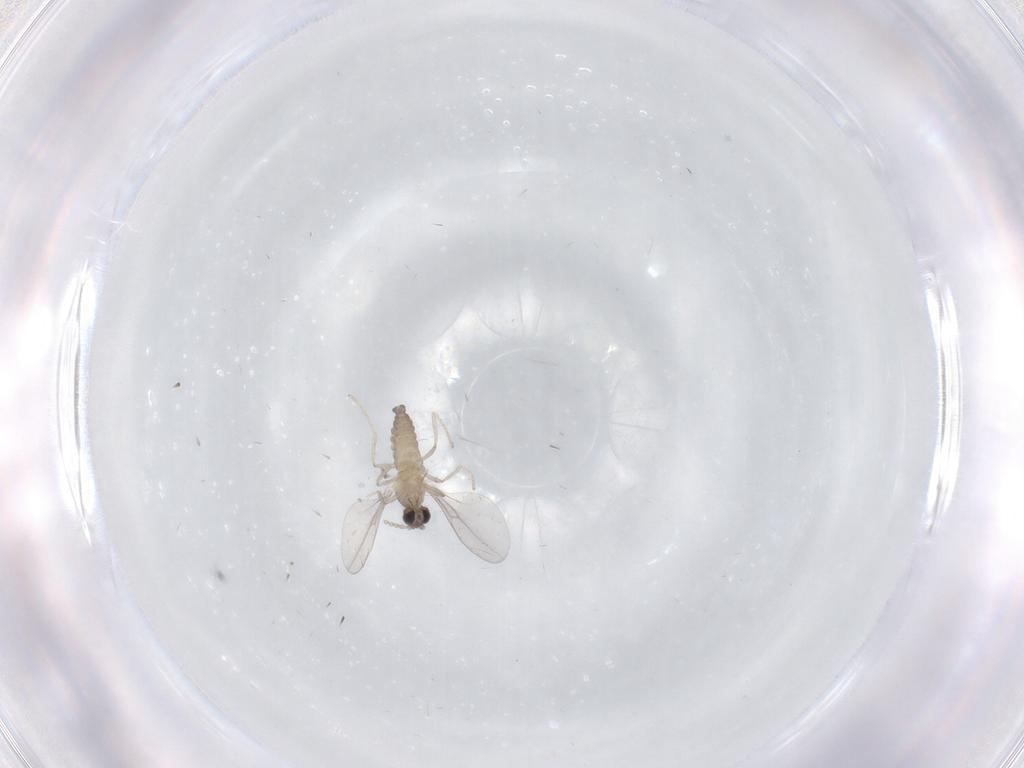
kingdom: Animalia
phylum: Arthropoda
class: Insecta
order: Diptera
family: Cecidomyiidae
